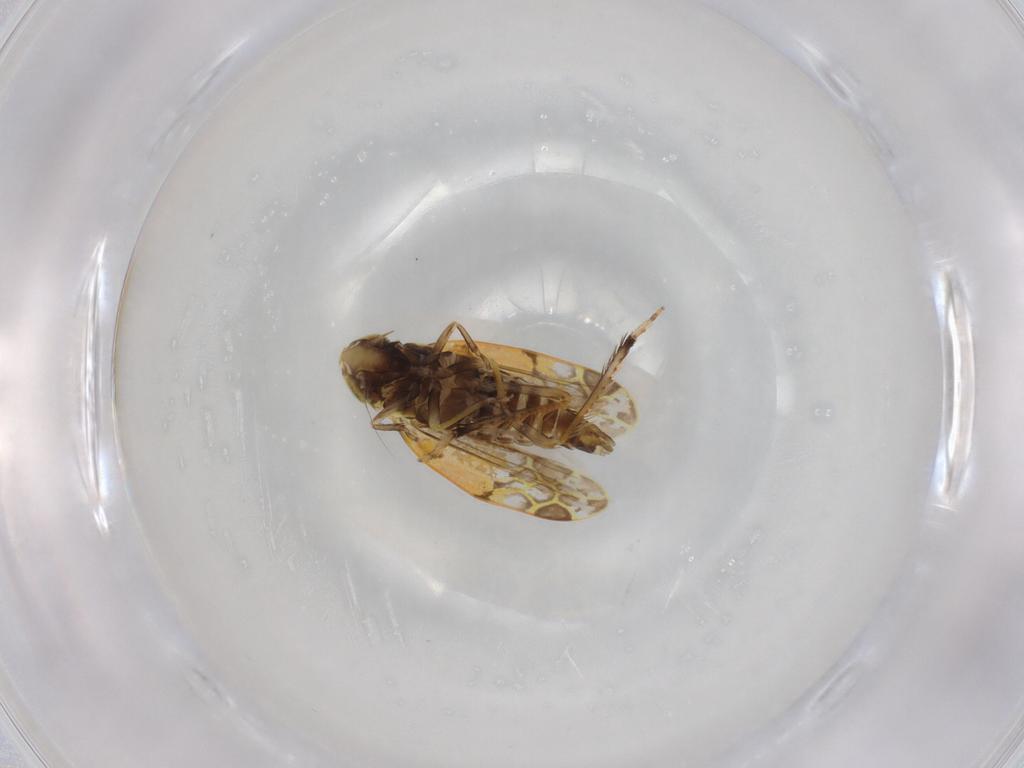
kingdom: Animalia
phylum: Arthropoda
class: Insecta
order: Hemiptera
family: Cicadellidae
